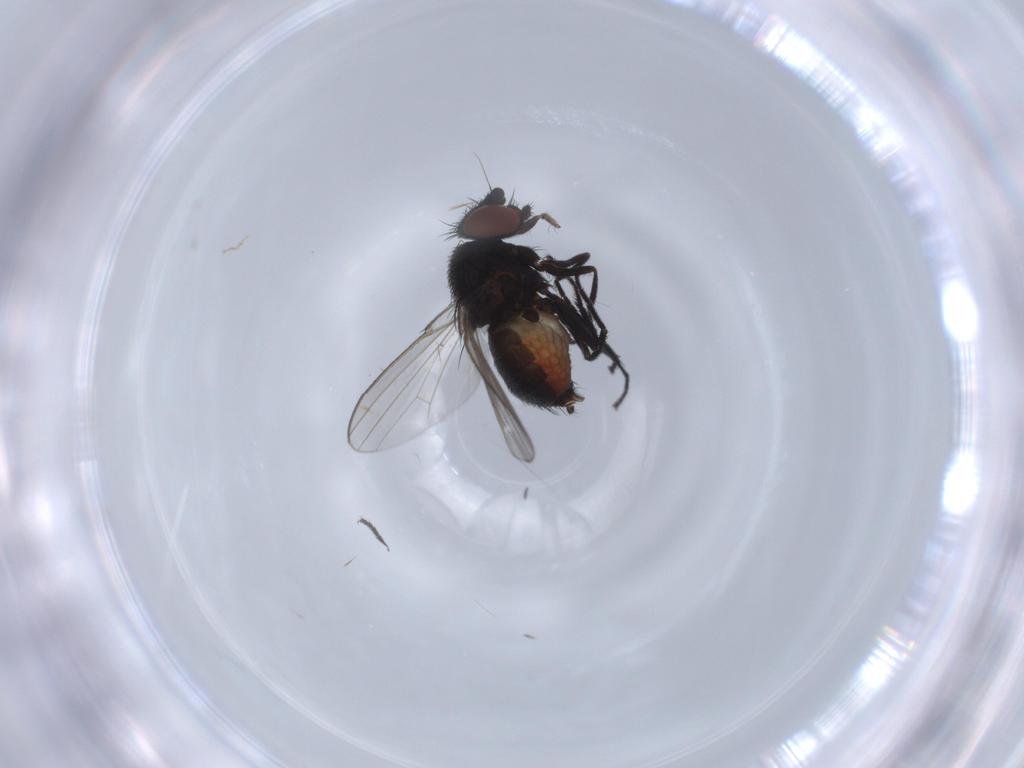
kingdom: Animalia
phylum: Arthropoda
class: Insecta
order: Diptera
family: Milichiidae
